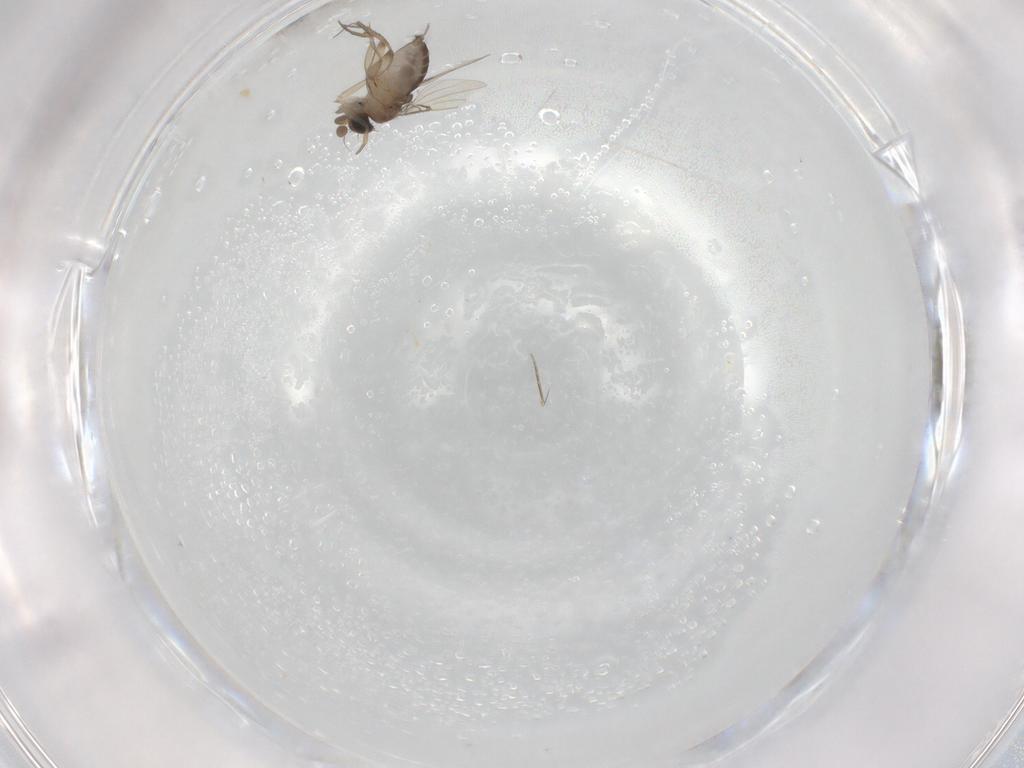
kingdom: Animalia
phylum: Arthropoda
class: Insecta
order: Diptera
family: Phoridae
